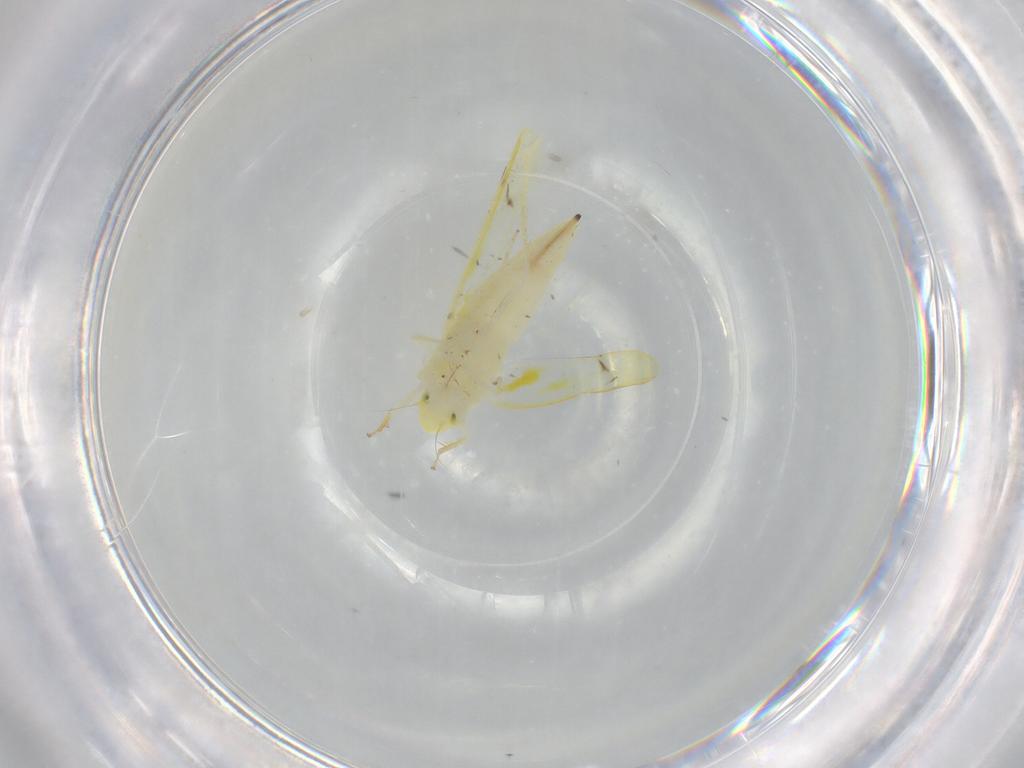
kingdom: Animalia
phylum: Arthropoda
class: Insecta
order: Hemiptera
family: Cicadellidae
